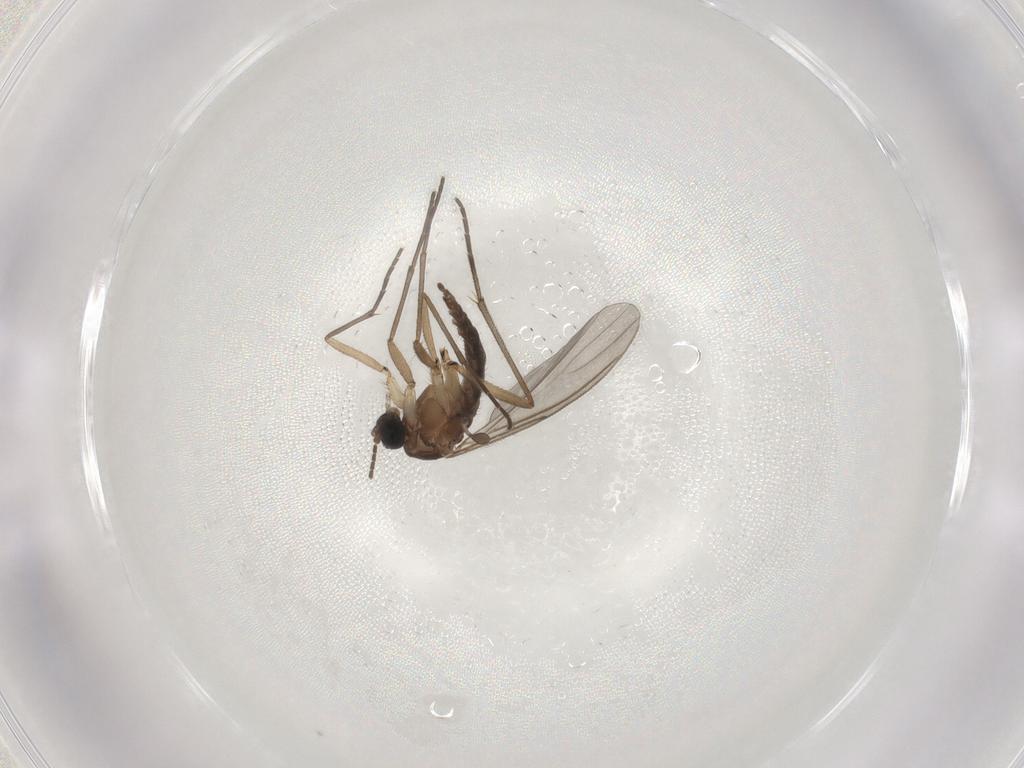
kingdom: Animalia
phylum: Arthropoda
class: Insecta
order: Diptera
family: Sciaridae
